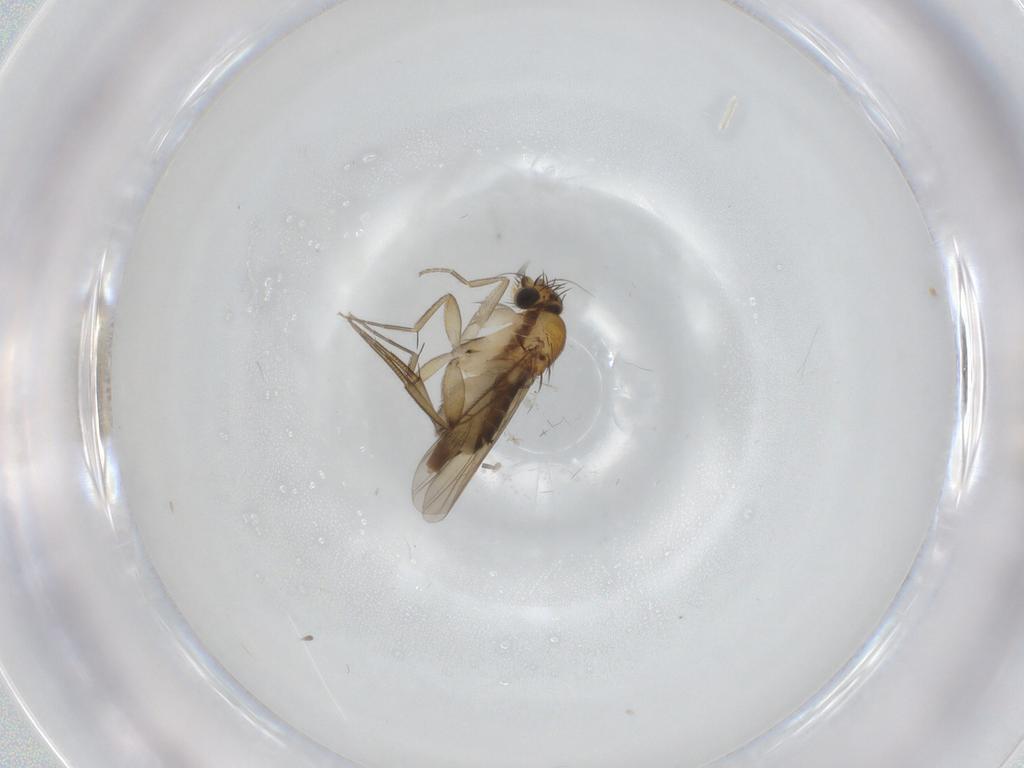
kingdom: Animalia
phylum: Arthropoda
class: Insecta
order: Diptera
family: Phoridae
